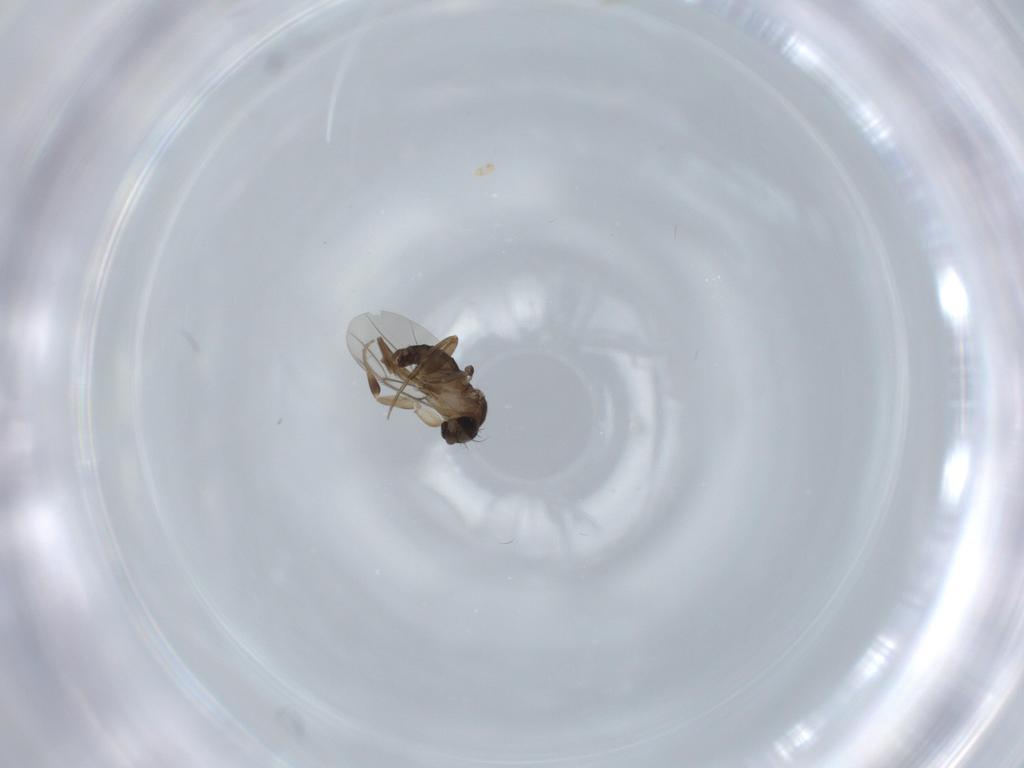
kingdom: Animalia
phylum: Arthropoda
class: Insecta
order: Diptera
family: Phoridae
